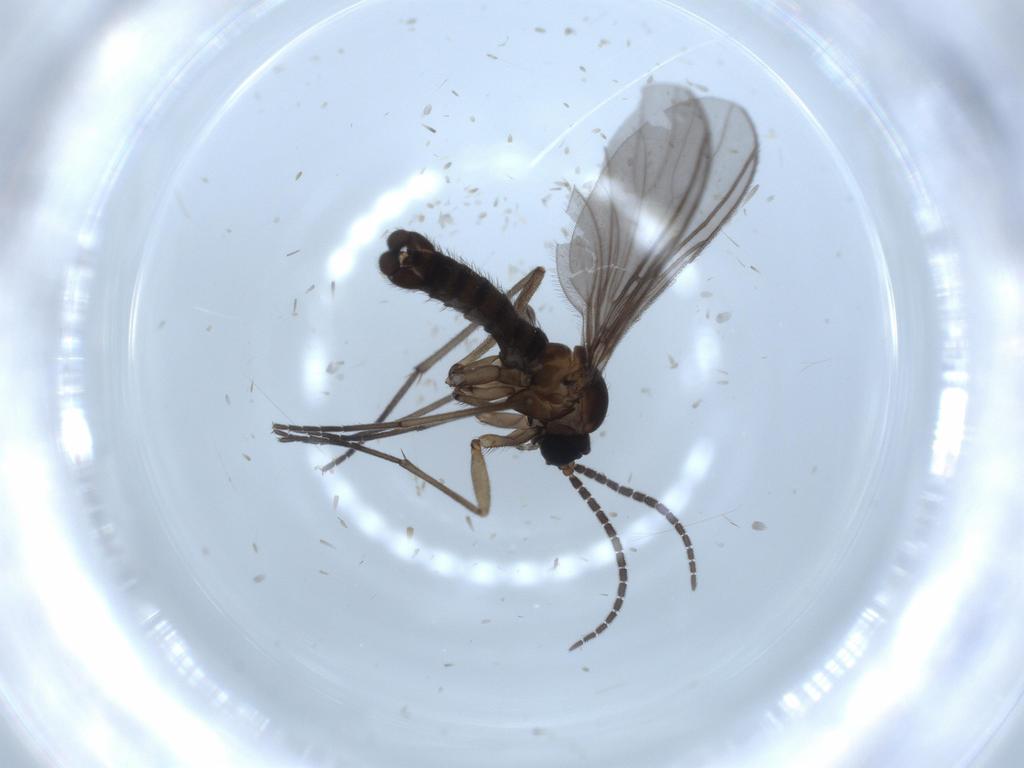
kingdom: Animalia
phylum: Arthropoda
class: Insecta
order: Diptera
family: Sciaridae
